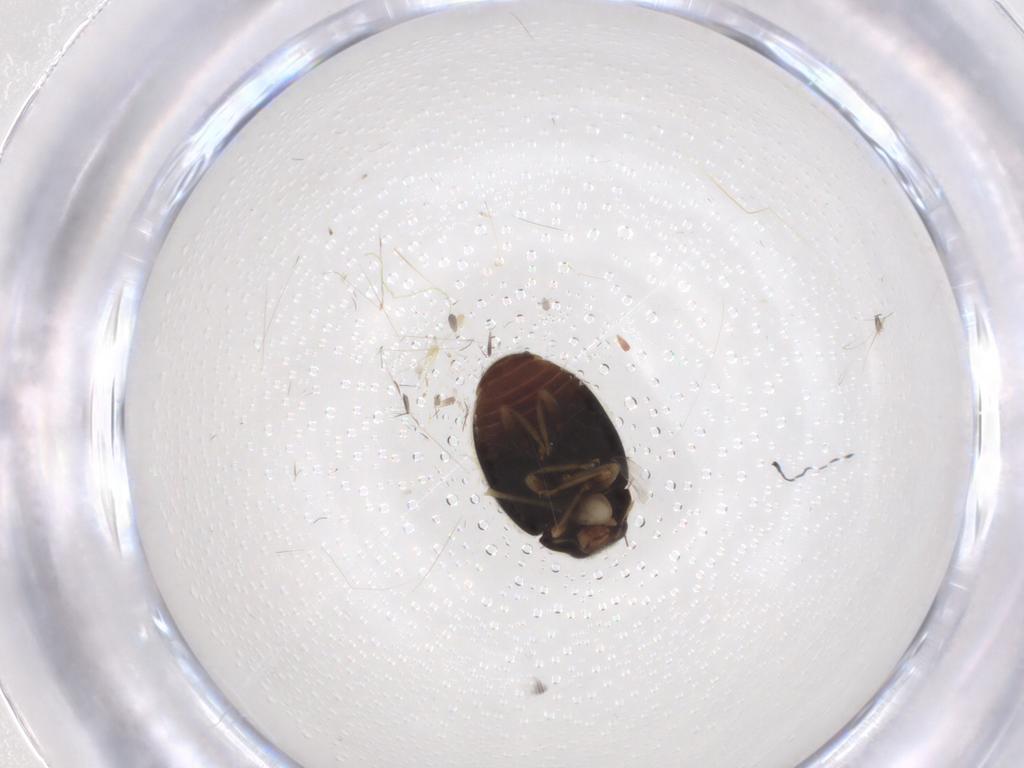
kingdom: Animalia
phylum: Arthropoda
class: Insecta
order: Coleoptera
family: Coccinellidae
